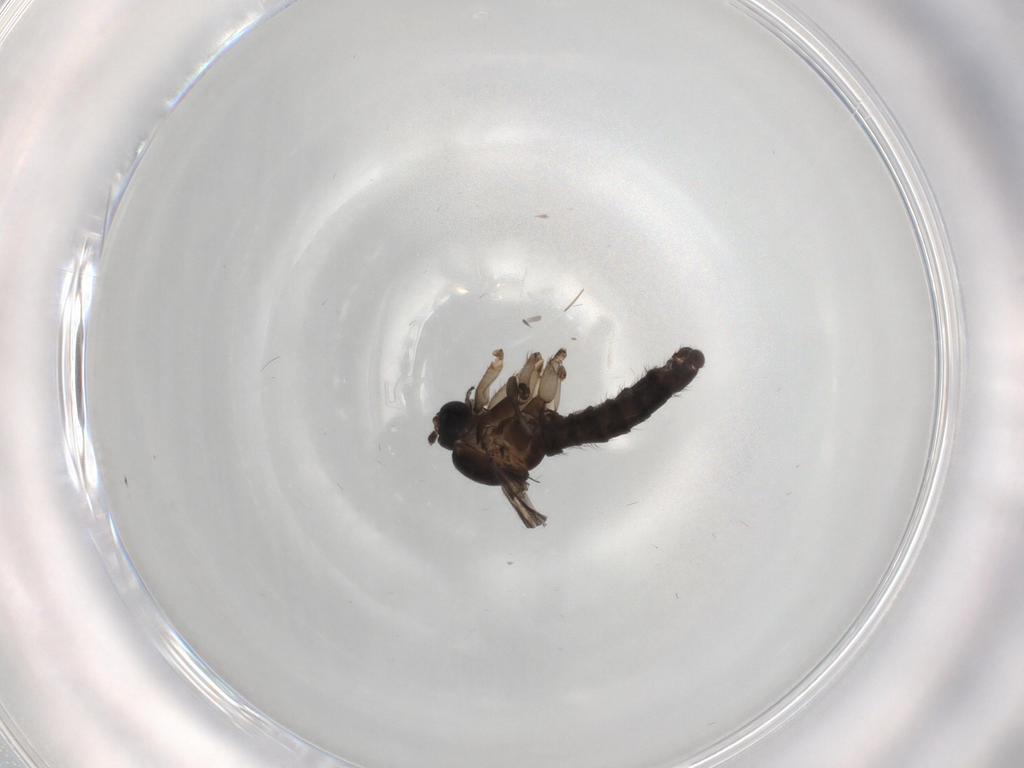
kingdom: Animalia
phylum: Arthropoda
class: Insecta
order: Diptera
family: Sciaridae
